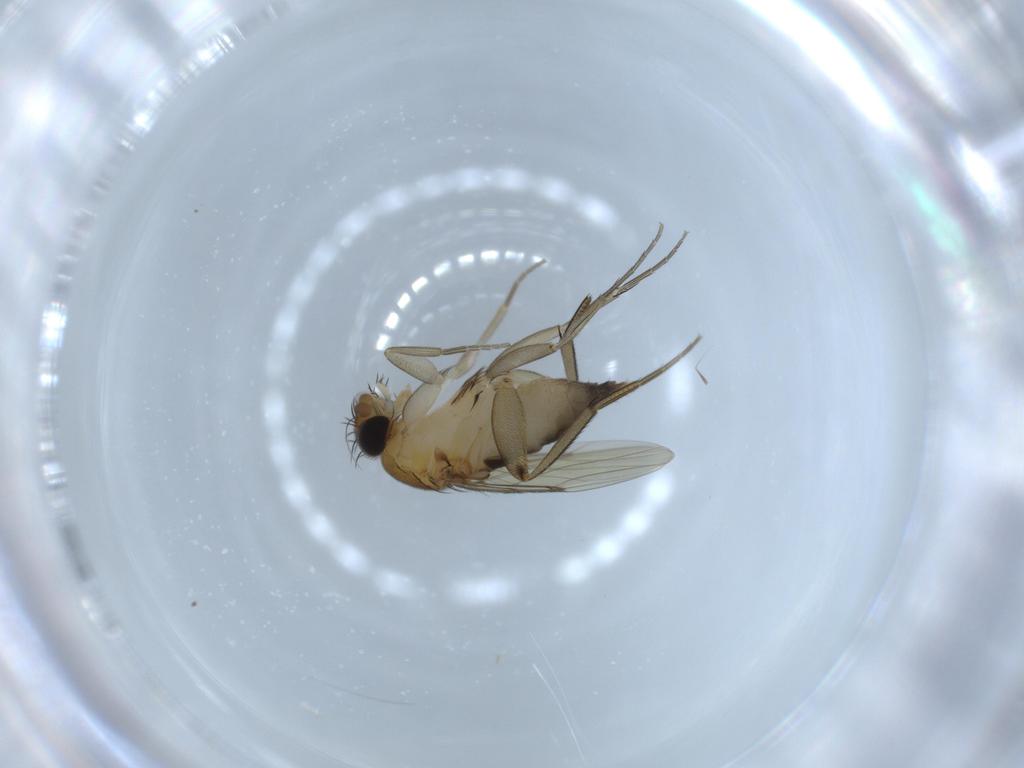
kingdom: Animalia
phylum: Arthropoda
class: Insecta
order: Diptera
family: Phoridae
